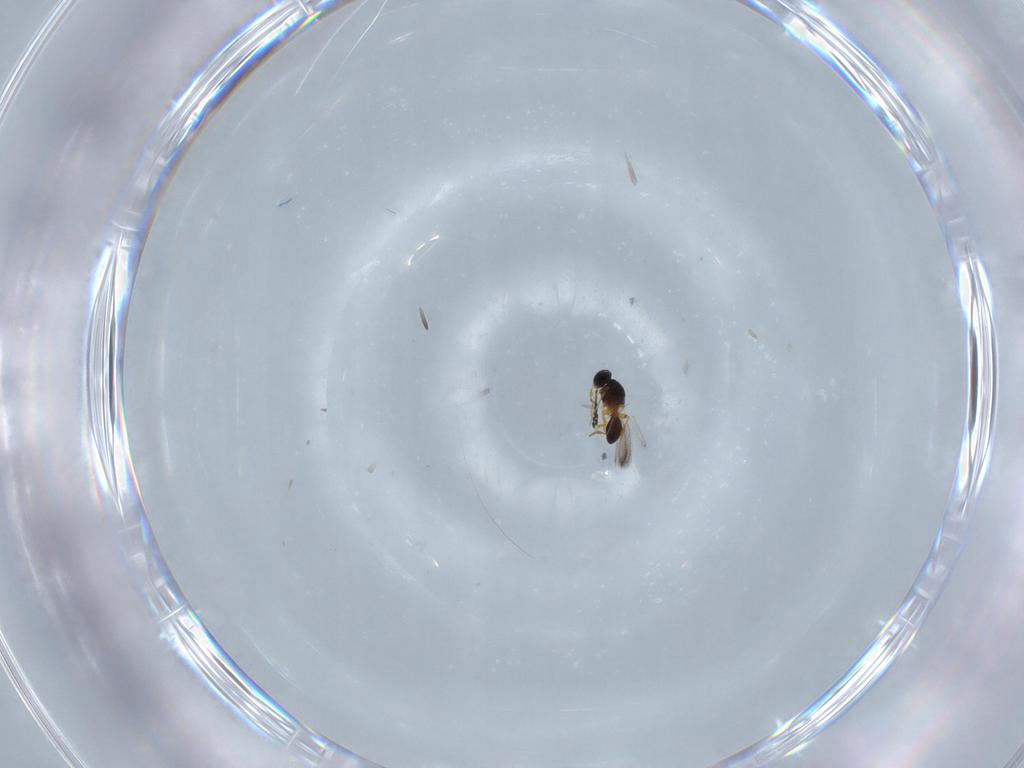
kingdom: Animalia
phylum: Arthropoda
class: Insecta
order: Hymenoptera
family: Platygastridae
